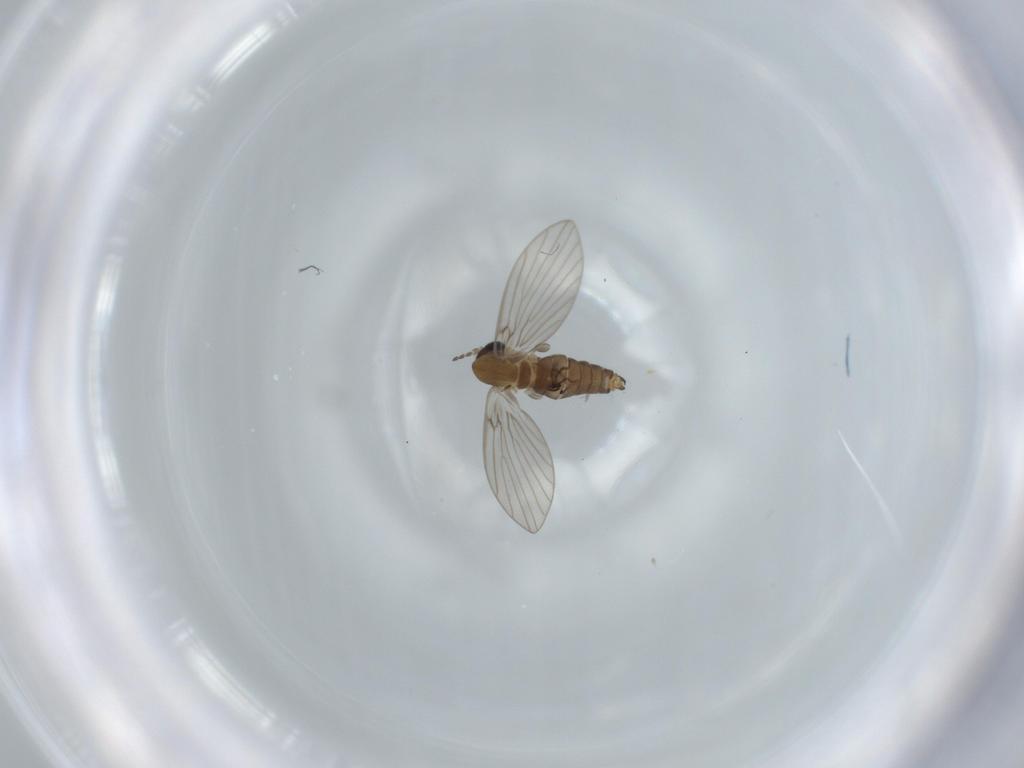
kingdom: Animalia
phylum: Arthropoda
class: Insecta
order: Diptera
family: Psychodidae
